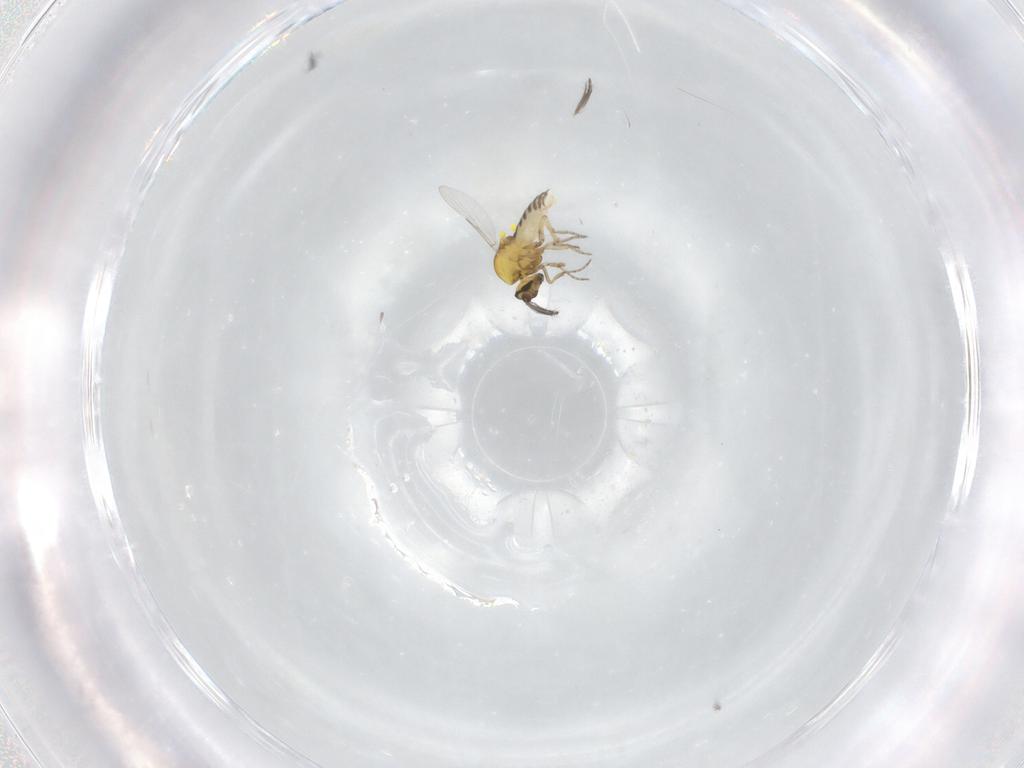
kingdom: Animalia
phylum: Arthropoda
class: Insecta
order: Diptera
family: Ceratopogonidae
